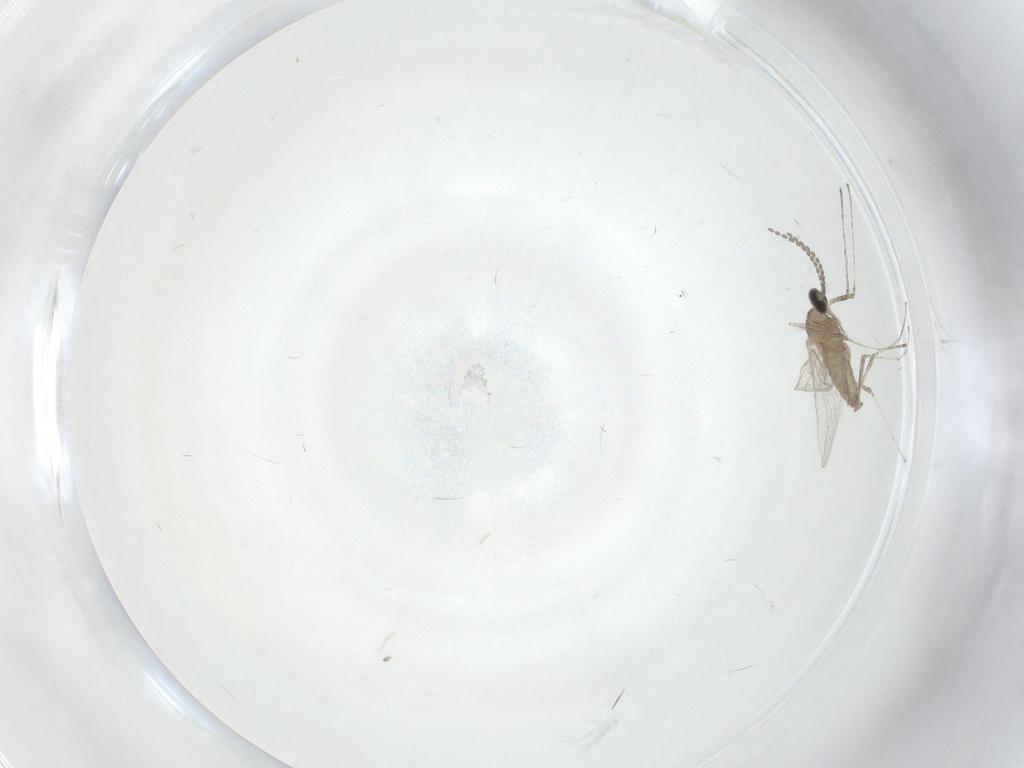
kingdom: Animalia
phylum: Arthropoda
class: Insecta
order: Diptera
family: Cecidomyiidae
